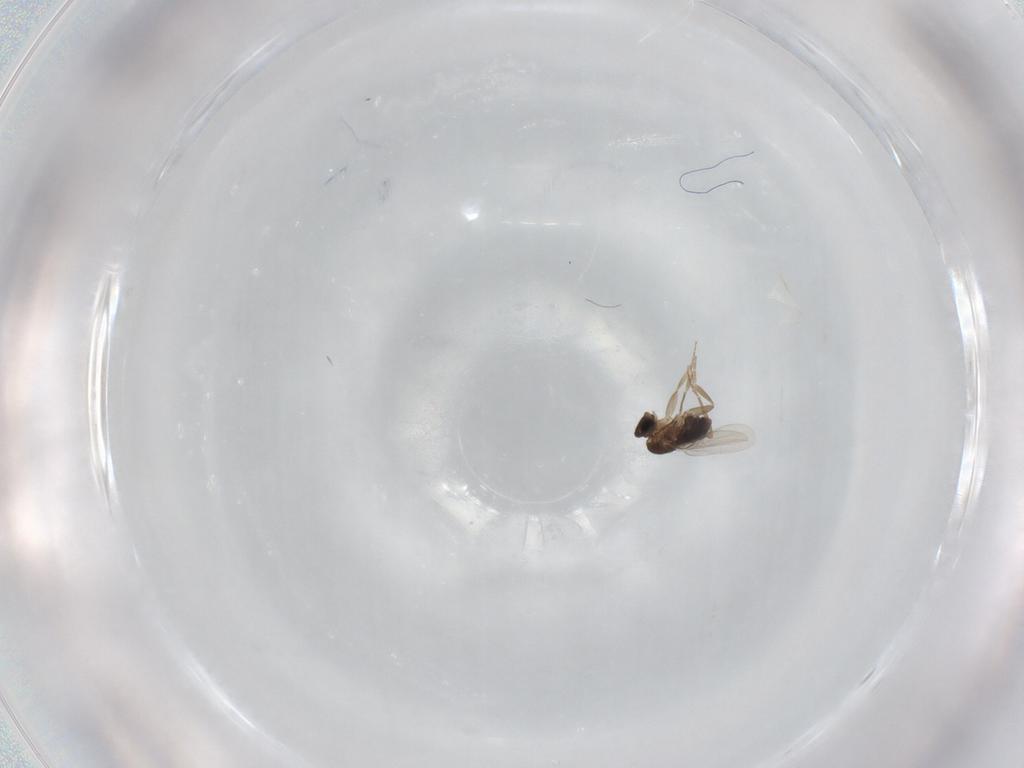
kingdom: Animalia
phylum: Arthropoda
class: Insecta
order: Diptera
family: Phoridae
